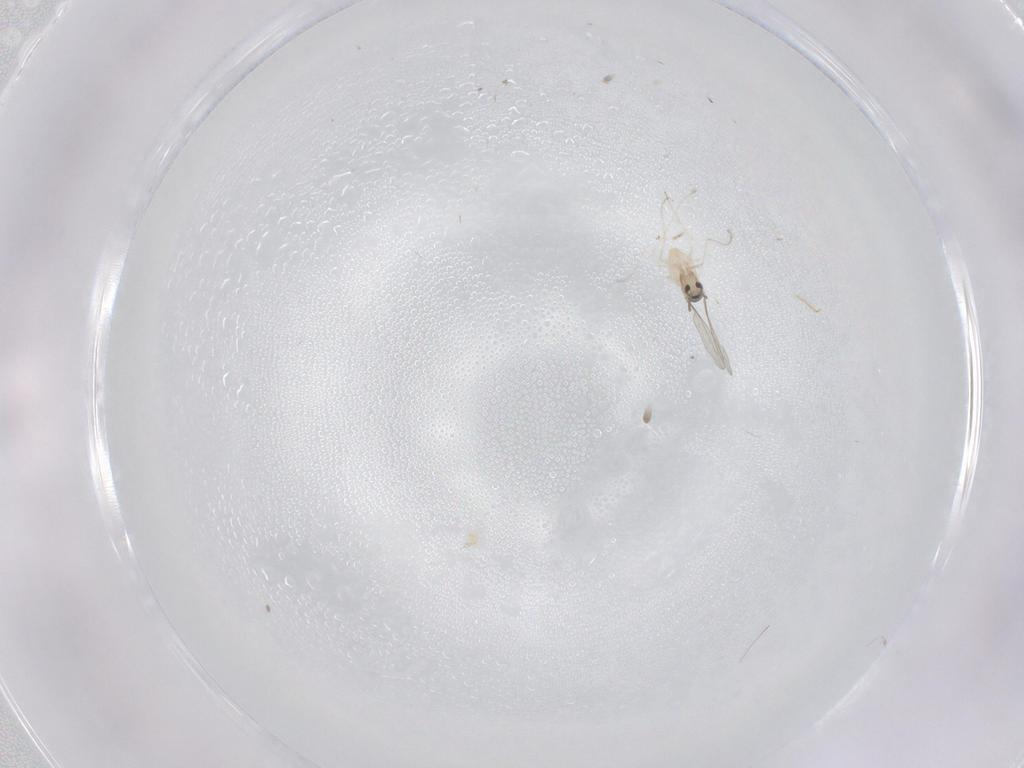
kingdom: Animalia
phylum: Arthropoda
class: Insecta
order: Diptera
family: Cecidomyiidae
